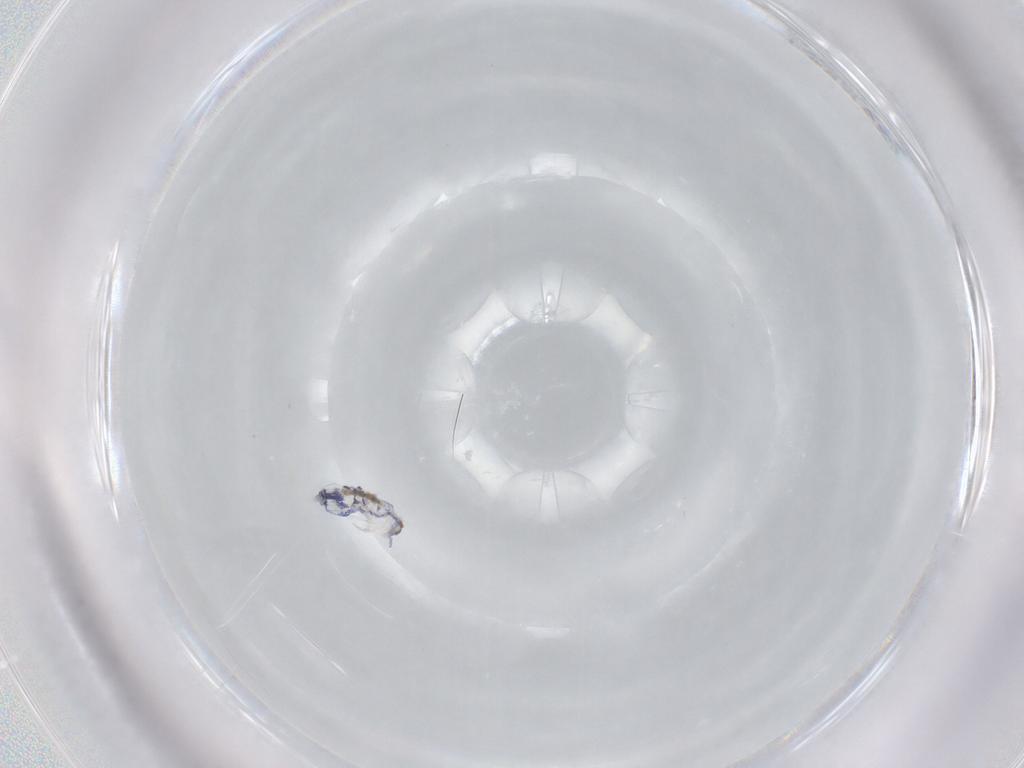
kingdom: Animalia
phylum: Arthropoda
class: Collembola
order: Entomobryomorpha
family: Entomobryidae
